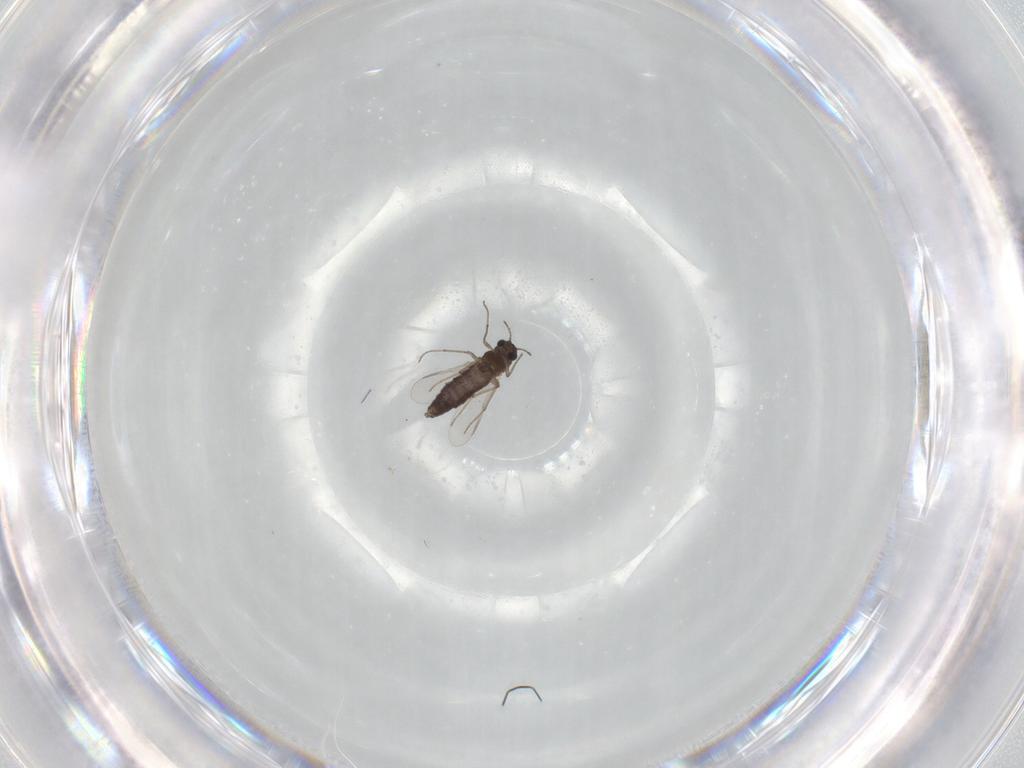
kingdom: Animalia
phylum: Arthropoda
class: Insecta
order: Diptera
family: Chironomidae
